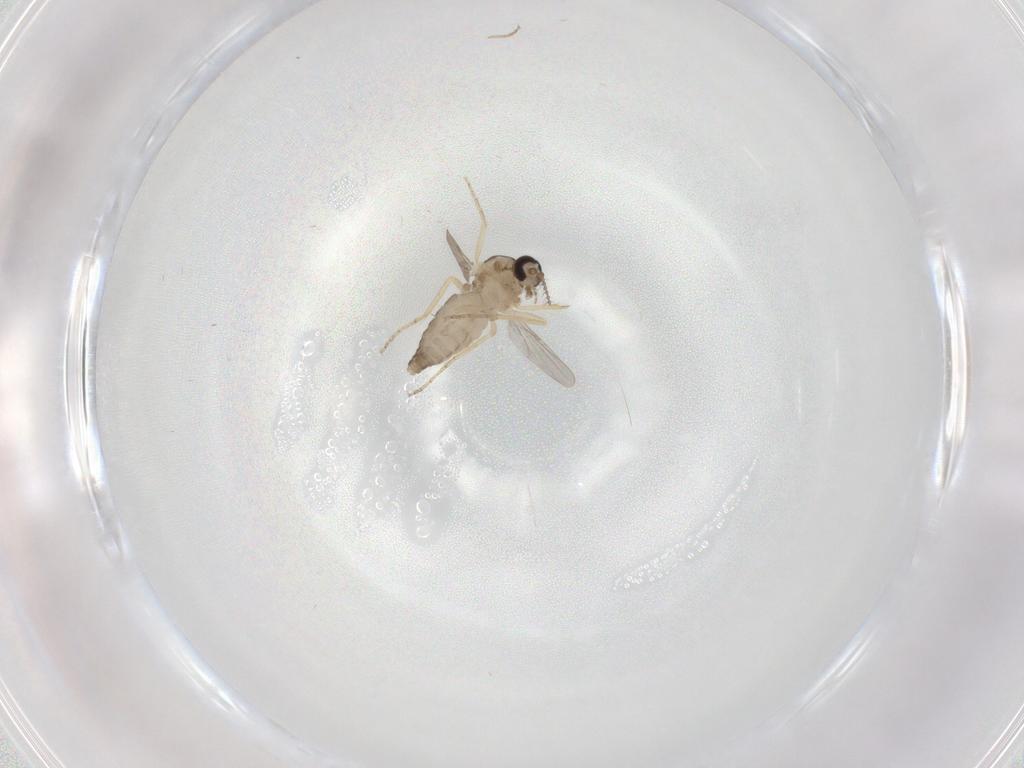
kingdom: Animalia
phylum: Arthropoda
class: Insecta
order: Diptera
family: Ceratopogonidae
